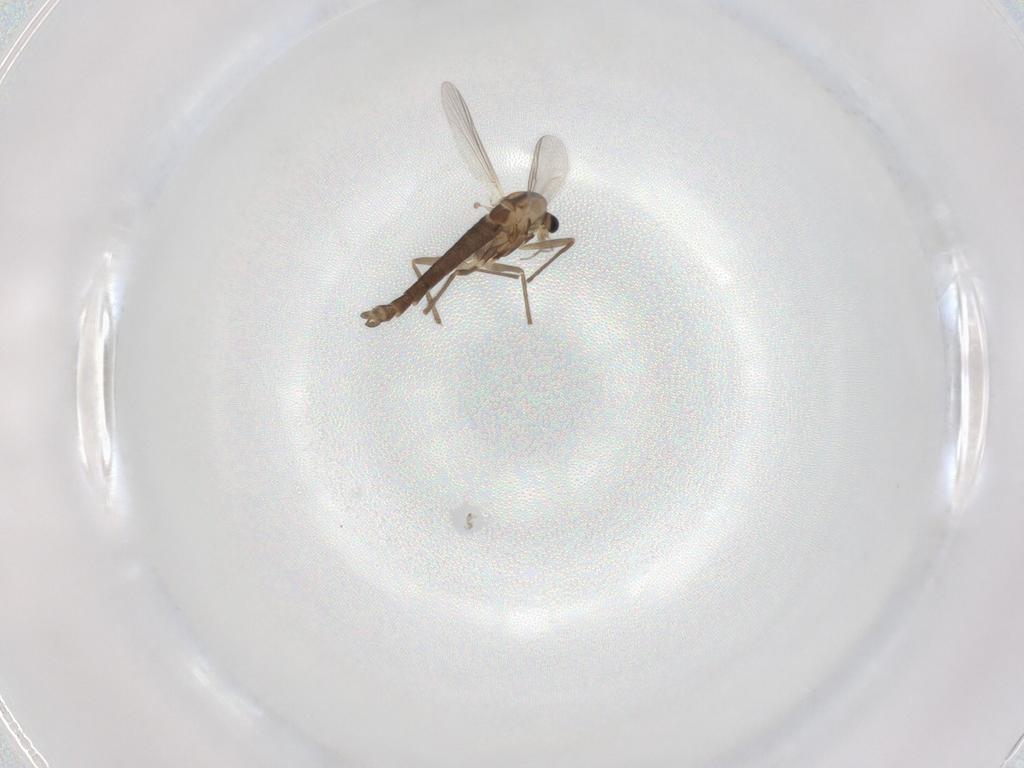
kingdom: Animalia
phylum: Arthropoda
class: Insecta
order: Diptera
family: Chironomidae
